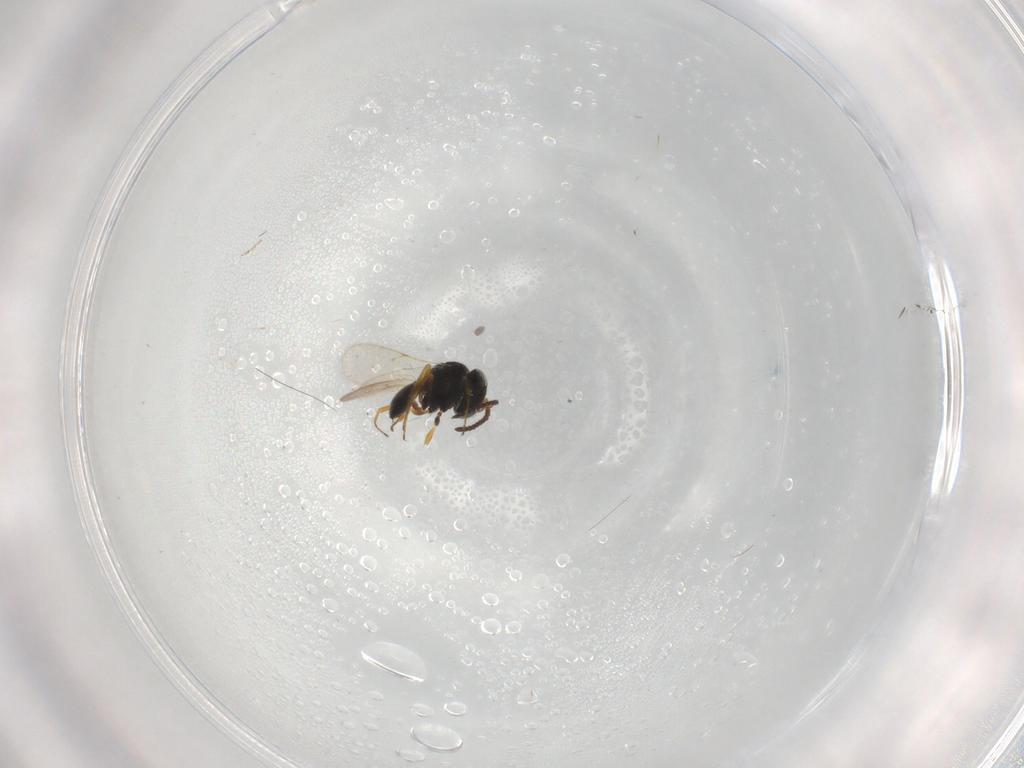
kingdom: Animalia
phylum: Arthropoda
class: Insecta
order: Hymenoptera
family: Scelionidae
